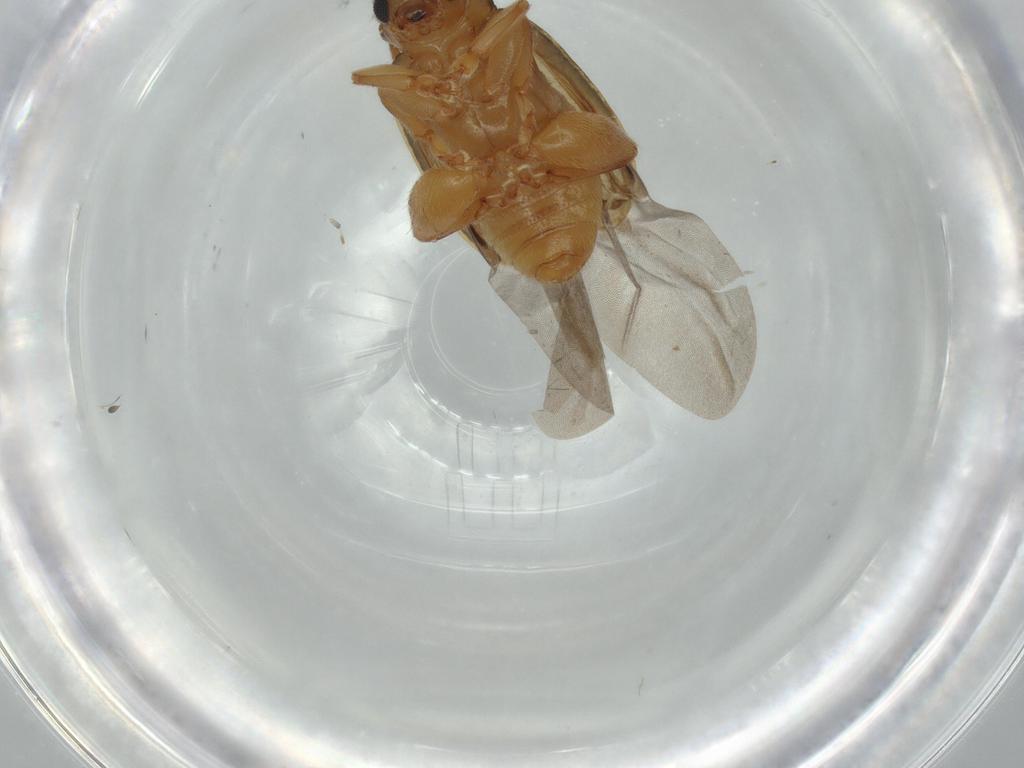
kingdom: Animalia
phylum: Arthropoda
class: Insecta
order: Coleoptera
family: Chrysomelidae
